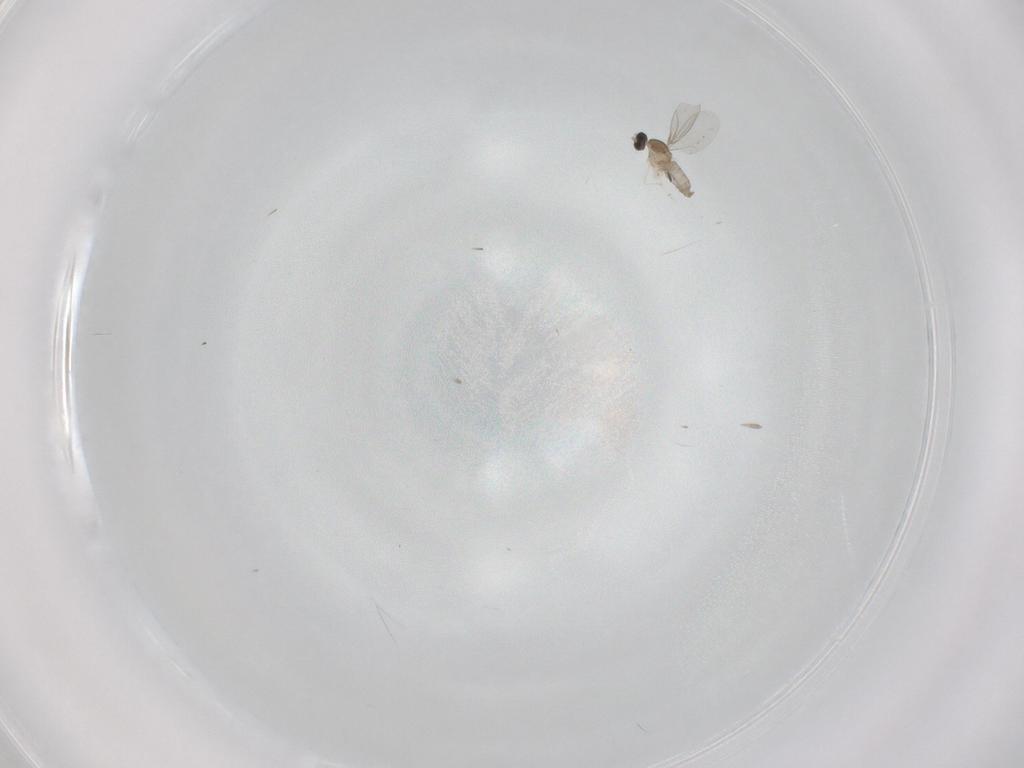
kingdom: Animalia
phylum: Arthropoda
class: Insecta
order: Diptera
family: Cecidomyiidae
